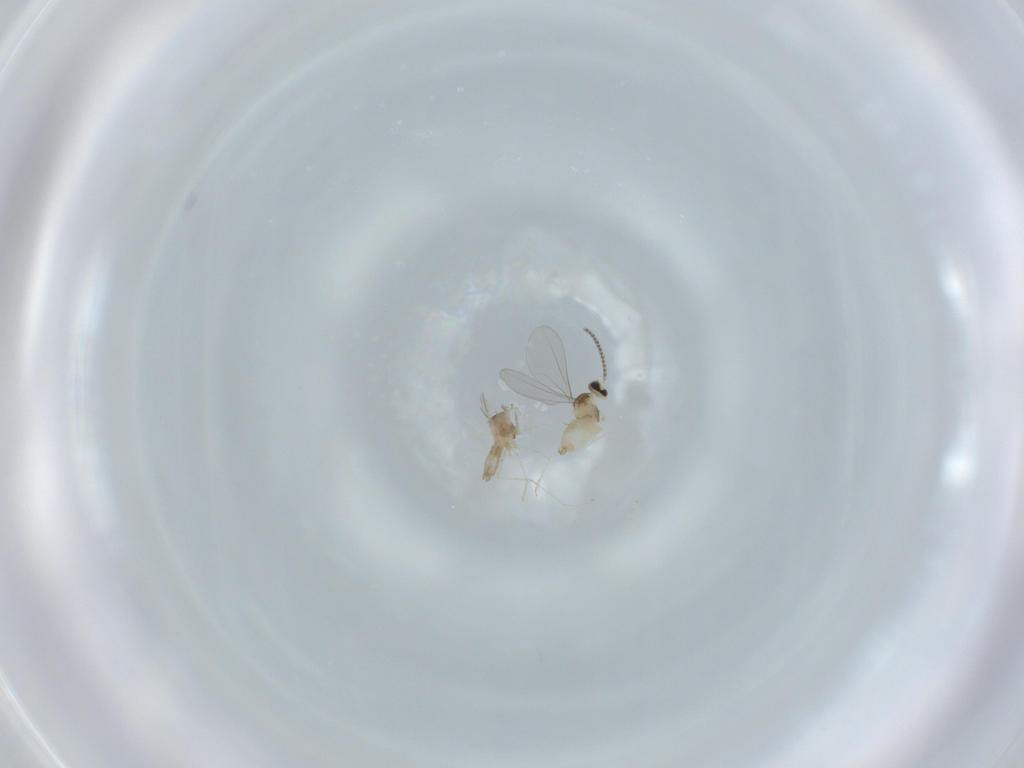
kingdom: Animalia
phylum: Arthropoda
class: Insecta
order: Diptera
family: Cecidomyiidae
